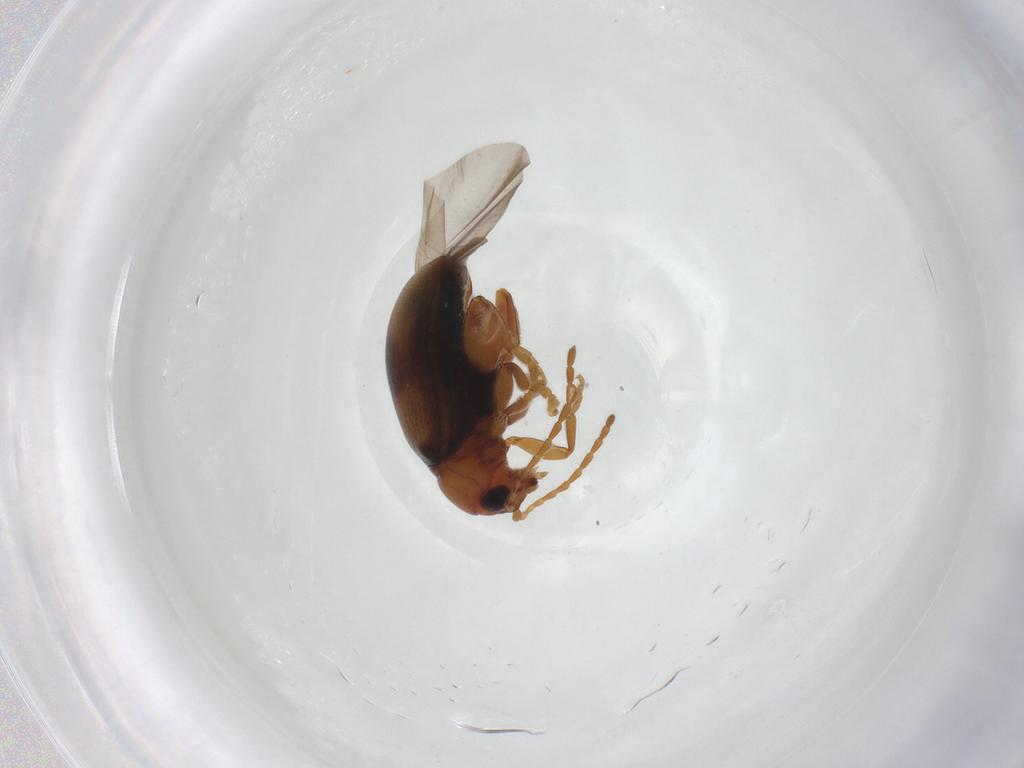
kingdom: Animalia
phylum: Arthropoda
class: Insecta
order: Coleoptera
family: Chrysomelidae
